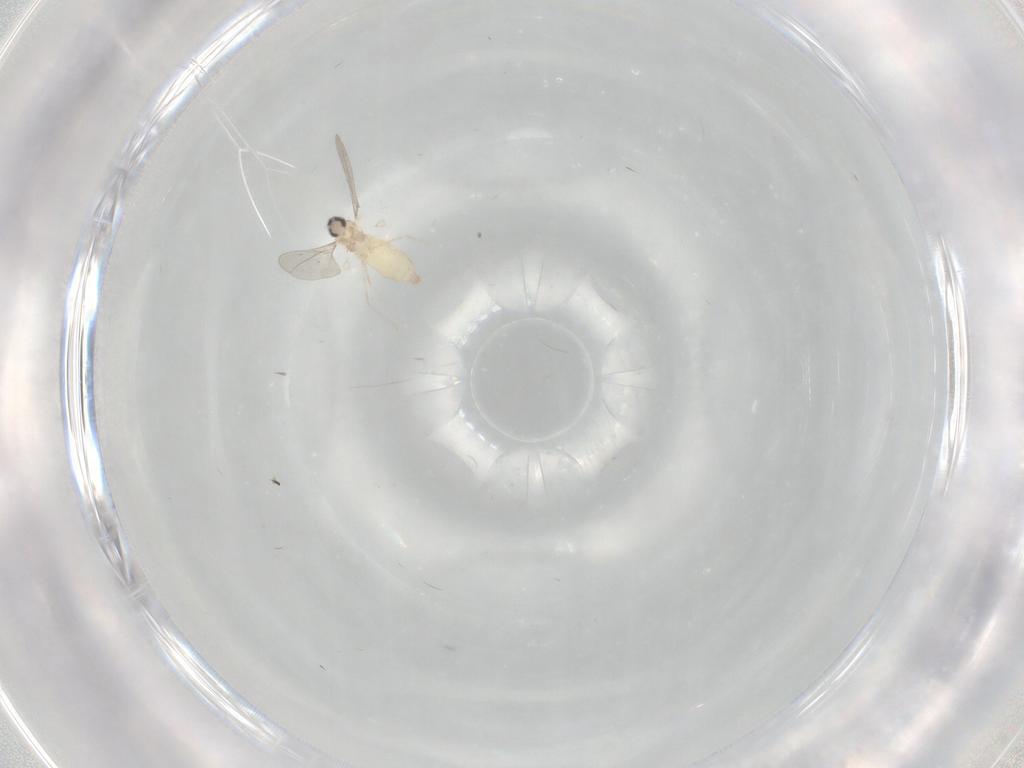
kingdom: Animalia
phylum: Arthropoda
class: Insecta
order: Diptera
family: Cecidomyiidae
